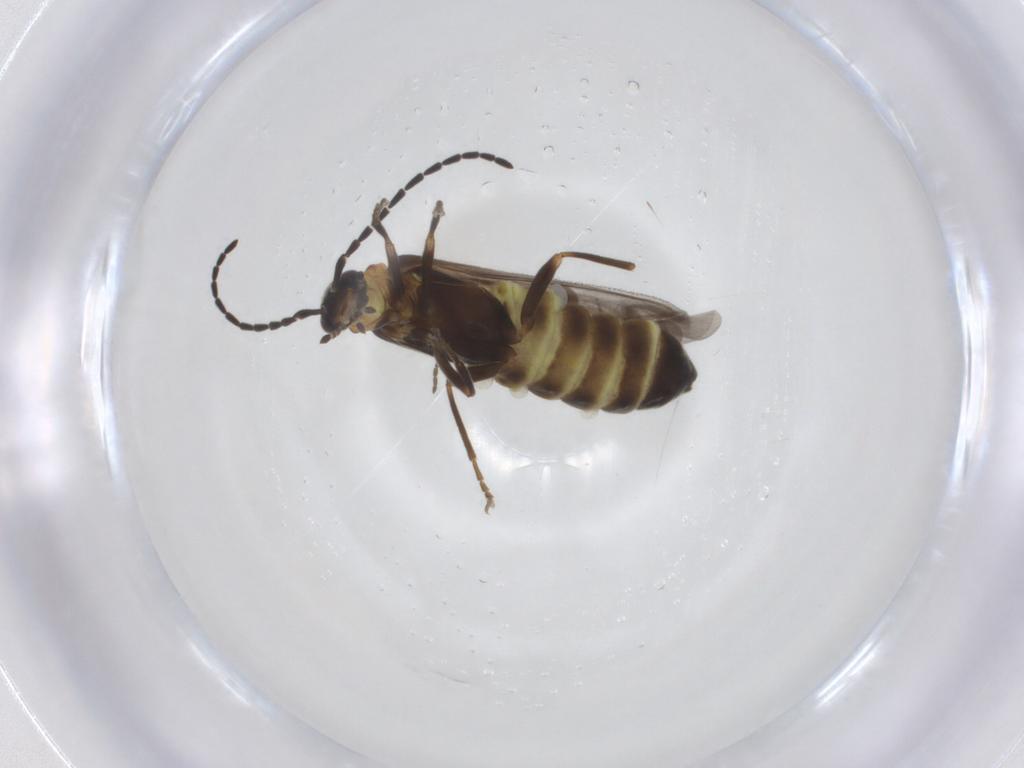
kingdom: Animalia
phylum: Arthropoda
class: Insecta
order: Coleoptera
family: Cantharidae
